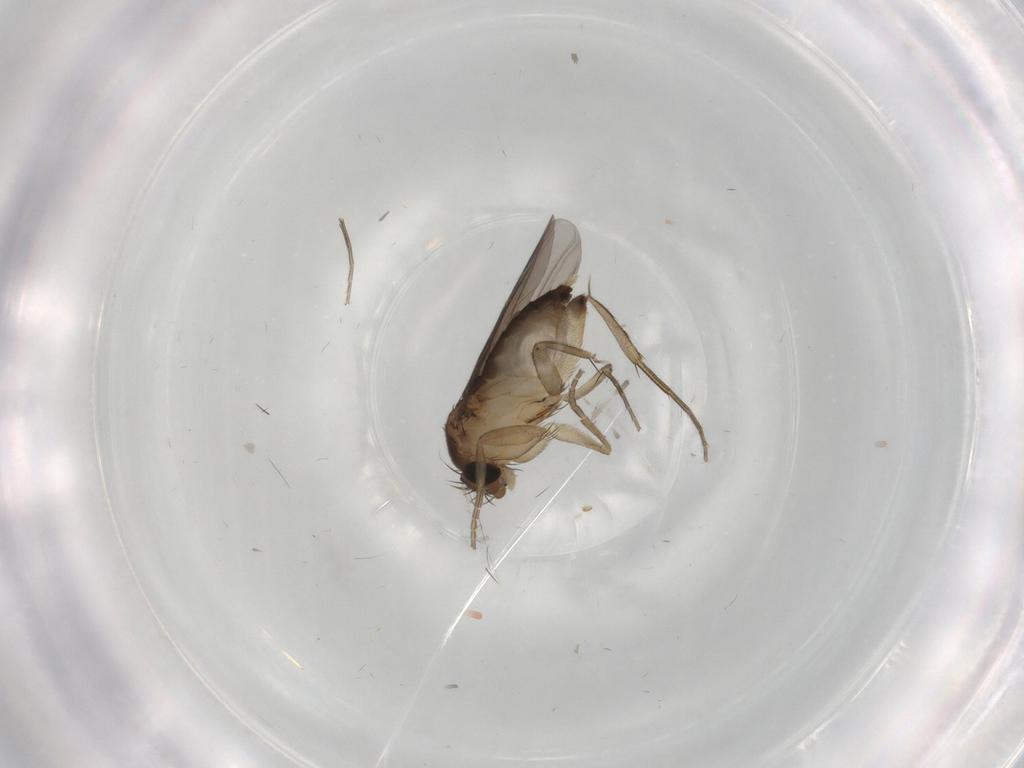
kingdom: Animalia
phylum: Arthropoda
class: Insecta
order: Diptera
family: Phoridae
